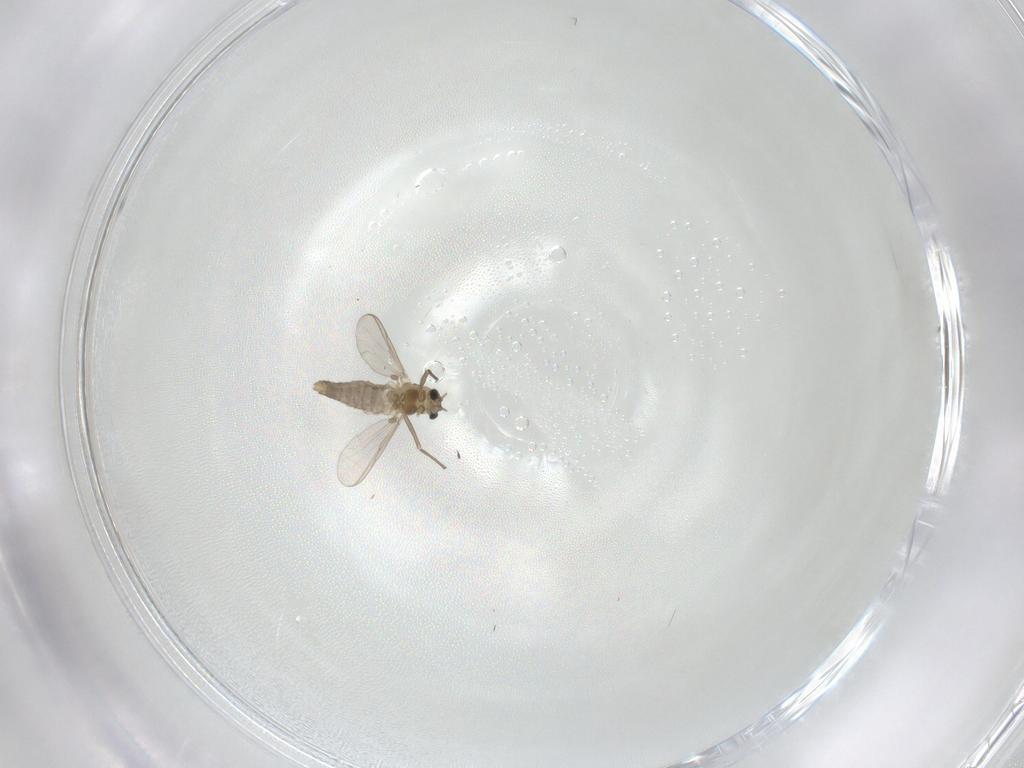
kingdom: Animalia
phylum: Arthropoda
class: Insecta
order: Diptera
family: Chironomidae
